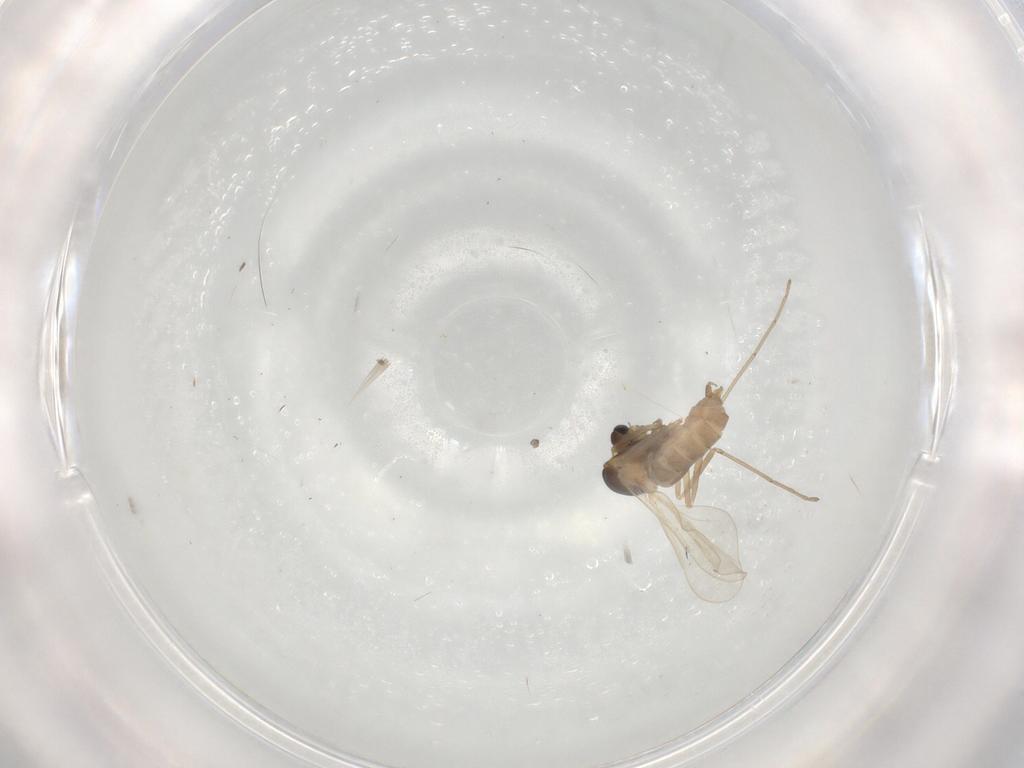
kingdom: Animalia
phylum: Arthropoda
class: Insecta
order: Diptera
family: Cecidomyiidae
